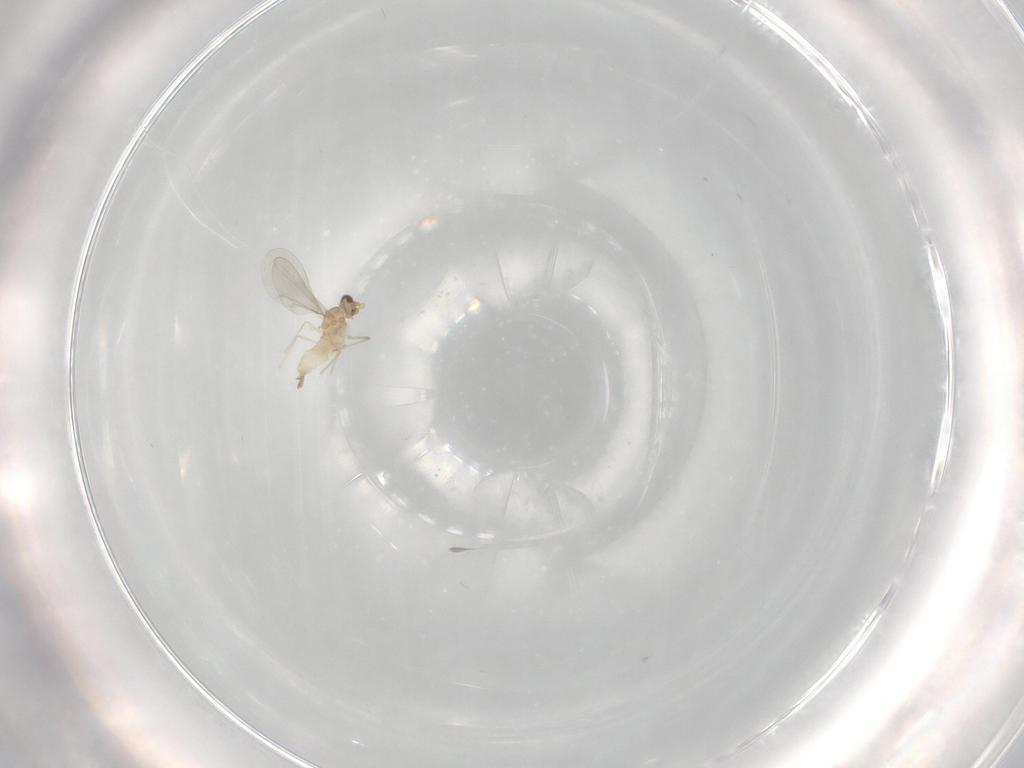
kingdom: Animalia
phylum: Arthropoda
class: Insecta
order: Diptera
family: Cecidomyiidae
